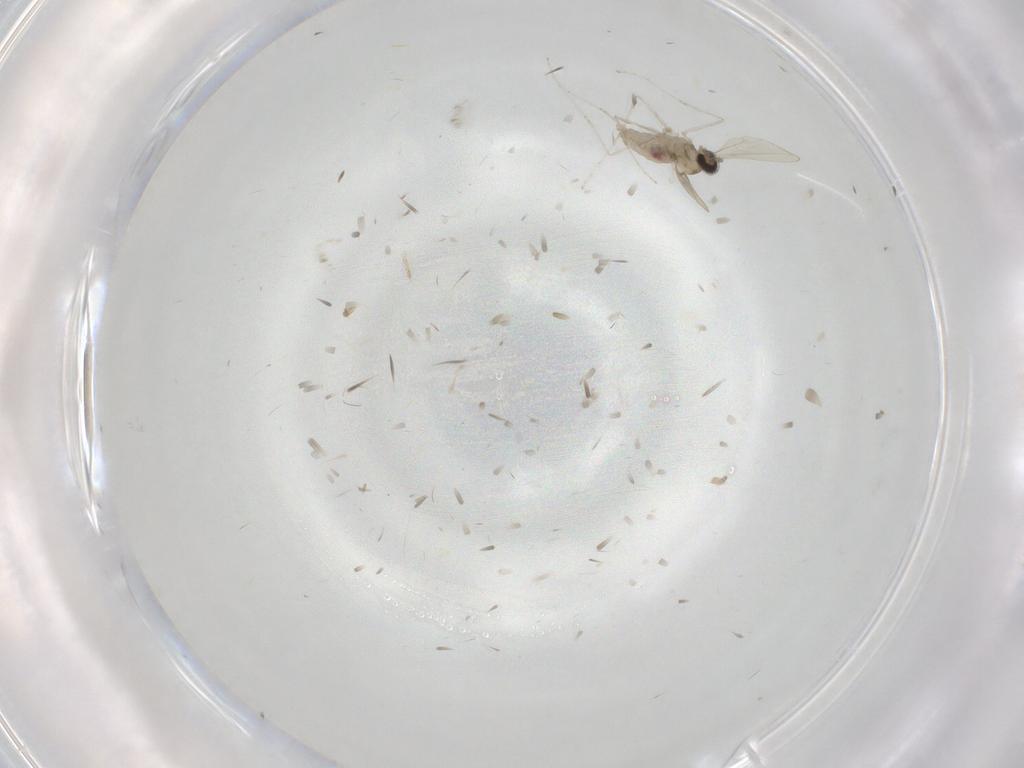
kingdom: Animalia
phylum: Arthropoda
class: Insecta
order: Diptera
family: Cecidomyiidae
